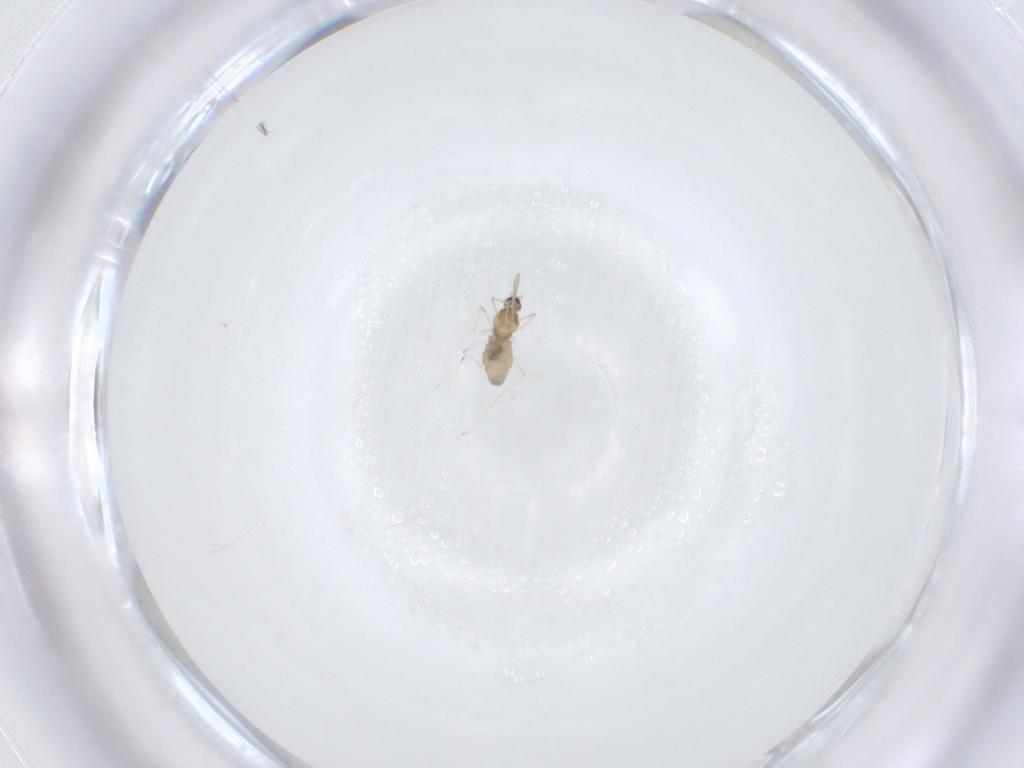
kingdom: Animalia
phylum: Arthropoda
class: Insecta
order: Diptera
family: Cecidomyiidae
